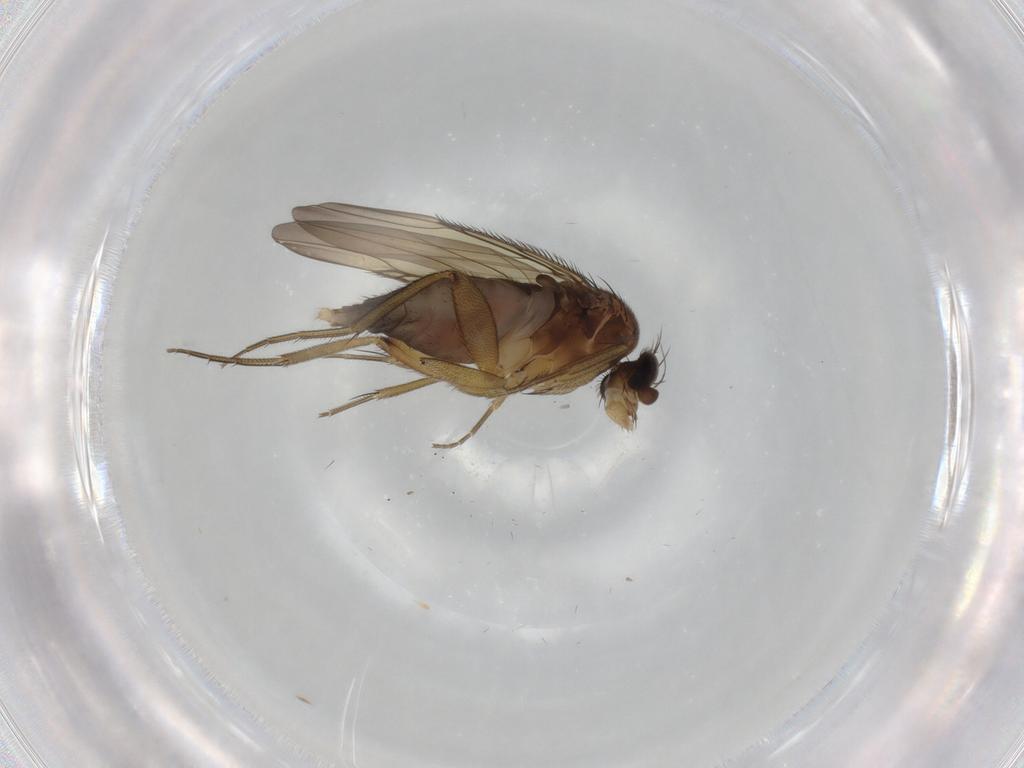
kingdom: Animalia
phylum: Arthropoda
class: Insecta
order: Diptera
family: Phoridae
